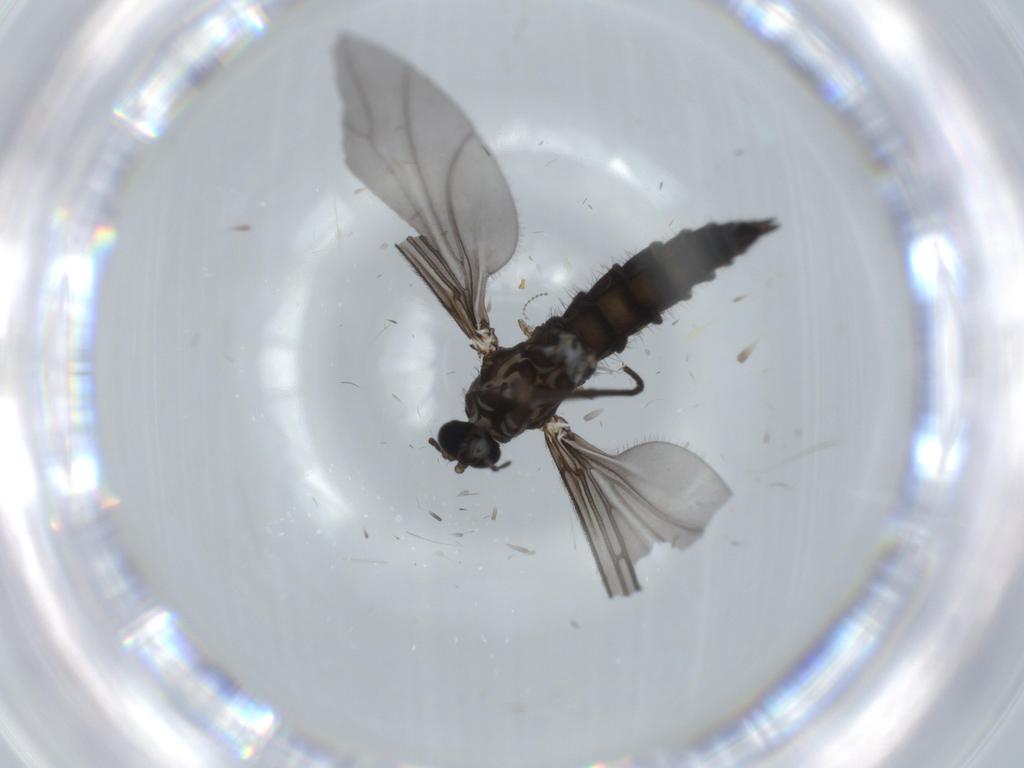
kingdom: Animalia
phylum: Arthropoda
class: Insecta
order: Diptera
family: Sciaridae
